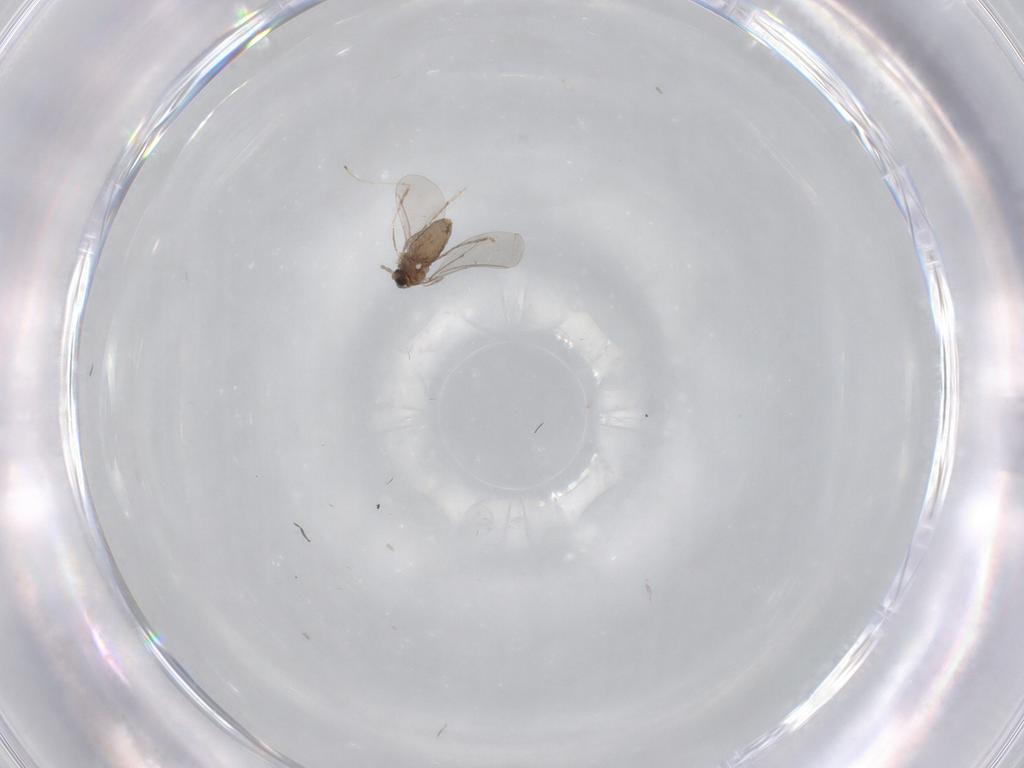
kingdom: Animalia
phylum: Arthropoda
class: Insecta
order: Diptera
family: Cecidomyiidae
